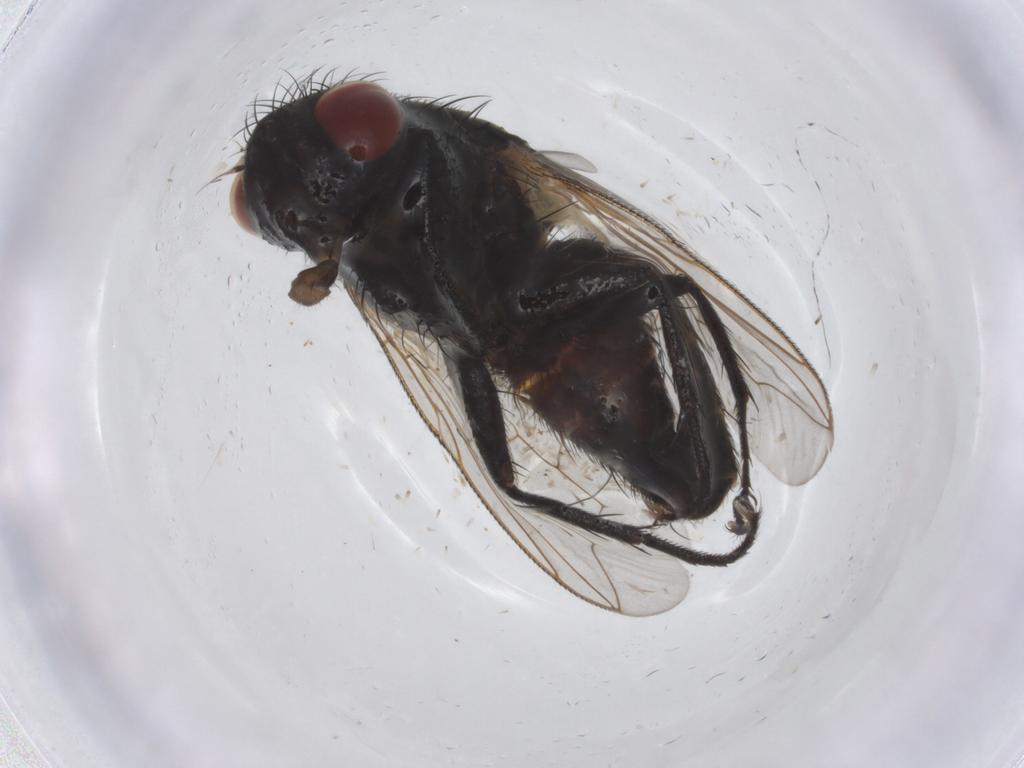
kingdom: Animalia
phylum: Arthropoda
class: Insecta
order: Diptera
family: Sarcophagidae
